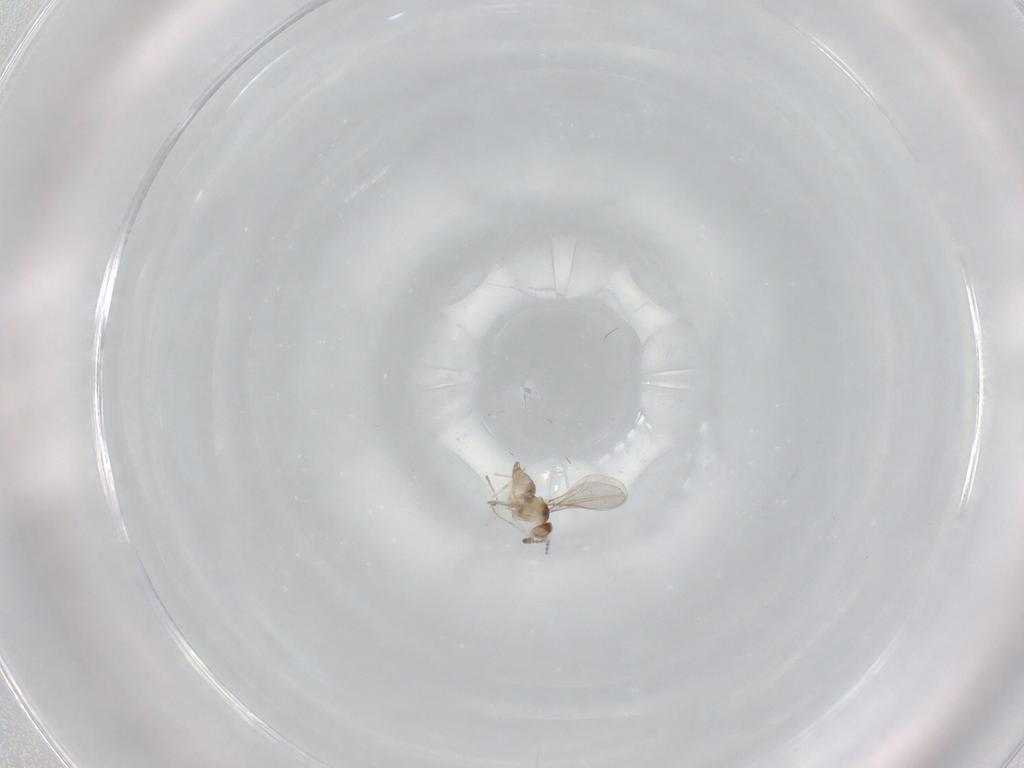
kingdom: Animalia
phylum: Arthropoda
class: Insecta
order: Diptera
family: Cecidomyiidae
